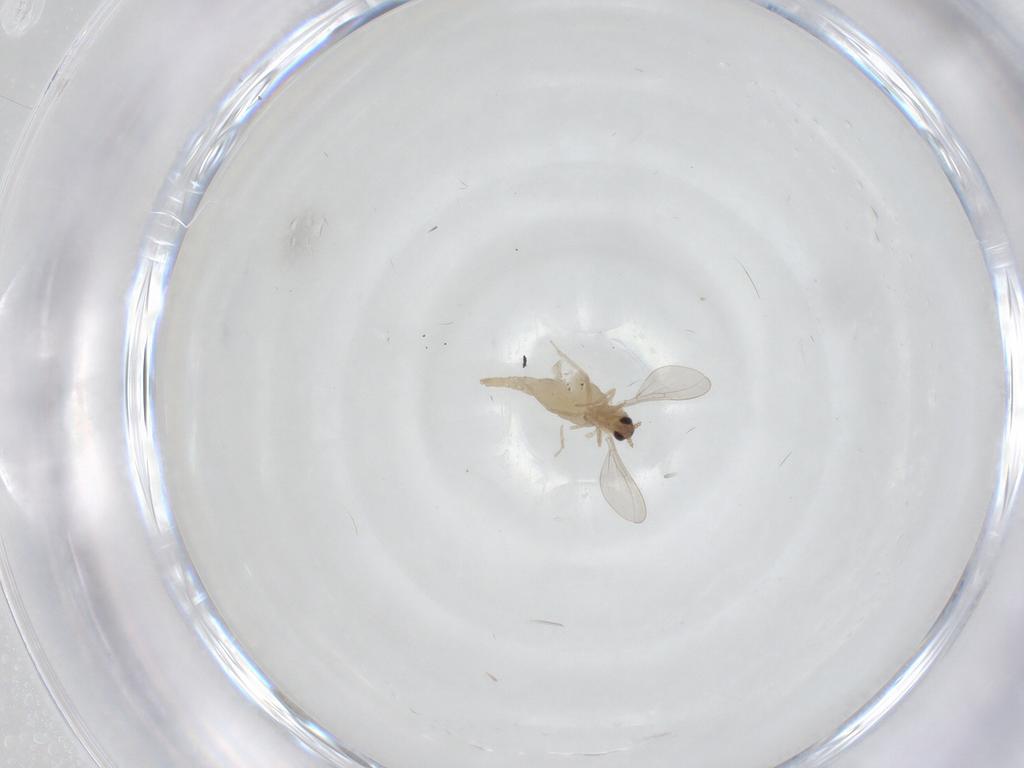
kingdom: Animalia
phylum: Arthropoda
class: Insecta
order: Diptera
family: Cecidomyiidae
